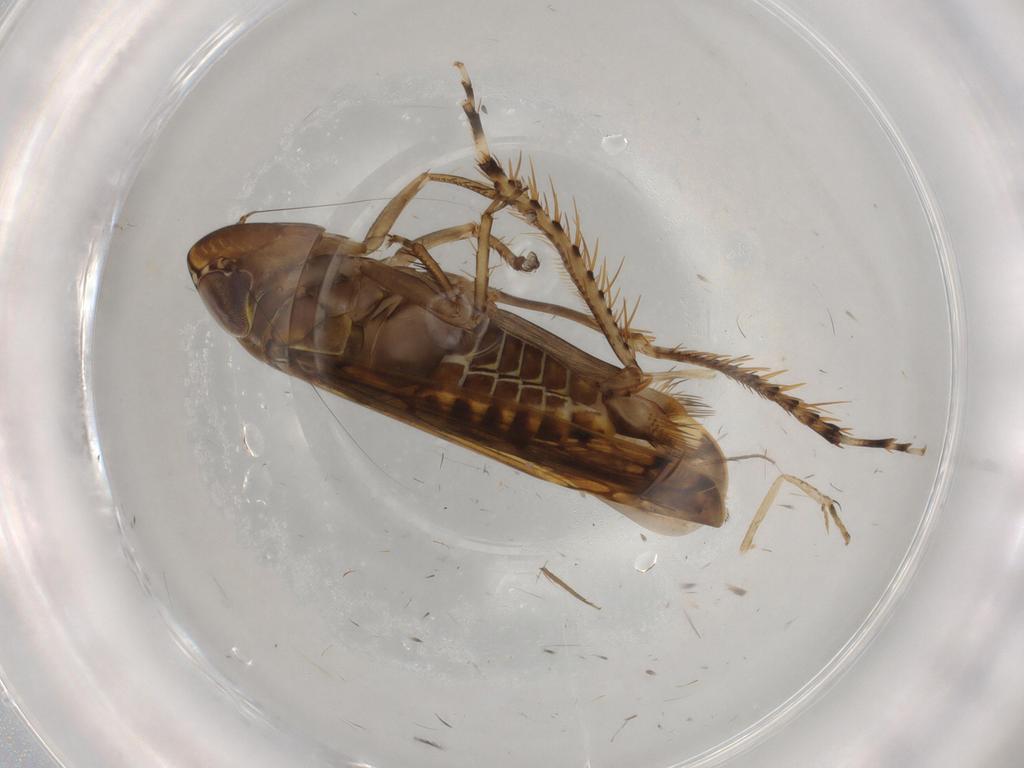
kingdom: Animalia
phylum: Arthropoda
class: Insecta
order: Hemiptera
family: Cicadellidae
